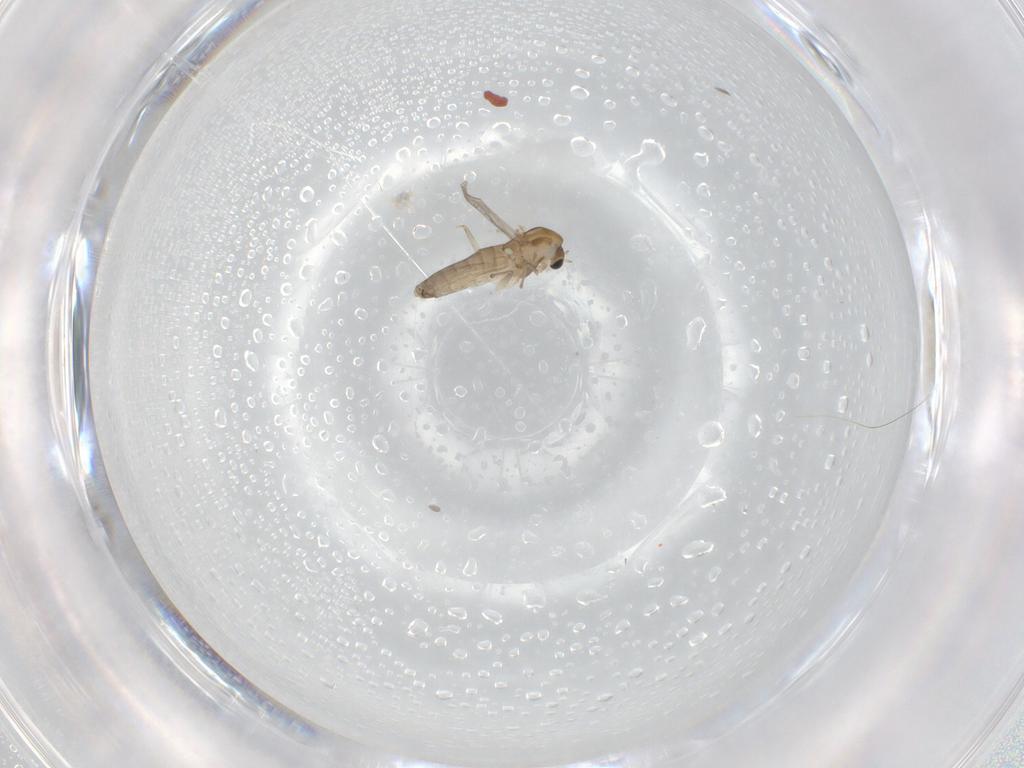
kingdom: Animalia
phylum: Arthropoda
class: Insecta
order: Diptera
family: Chironomidae
